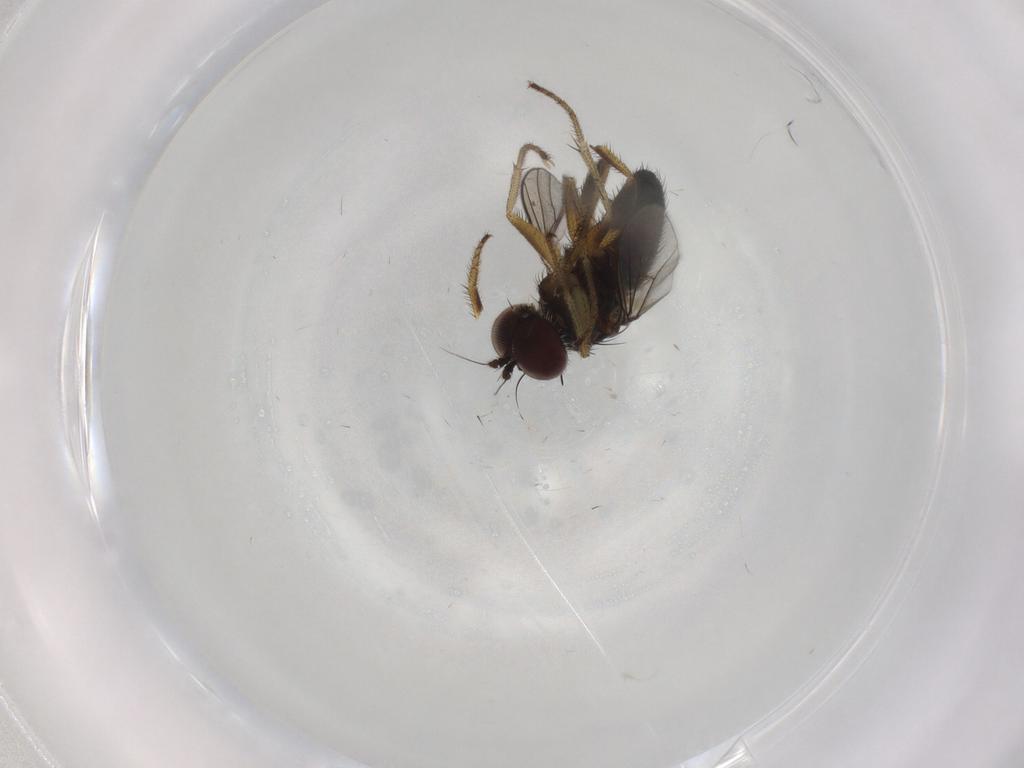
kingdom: Animalia
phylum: Arthropoda
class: Insecta
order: Diptera
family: Dolichopodidae
